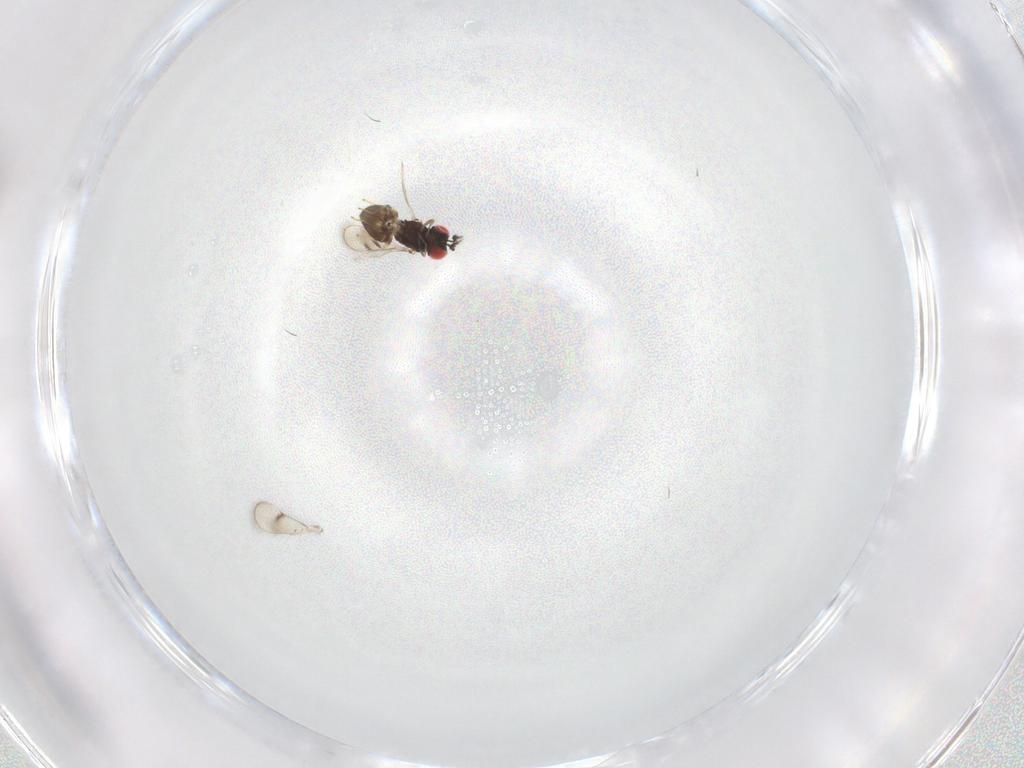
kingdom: Animalia
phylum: Arthropoda
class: Insecta
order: Hymenoptera
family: Eulophidae
